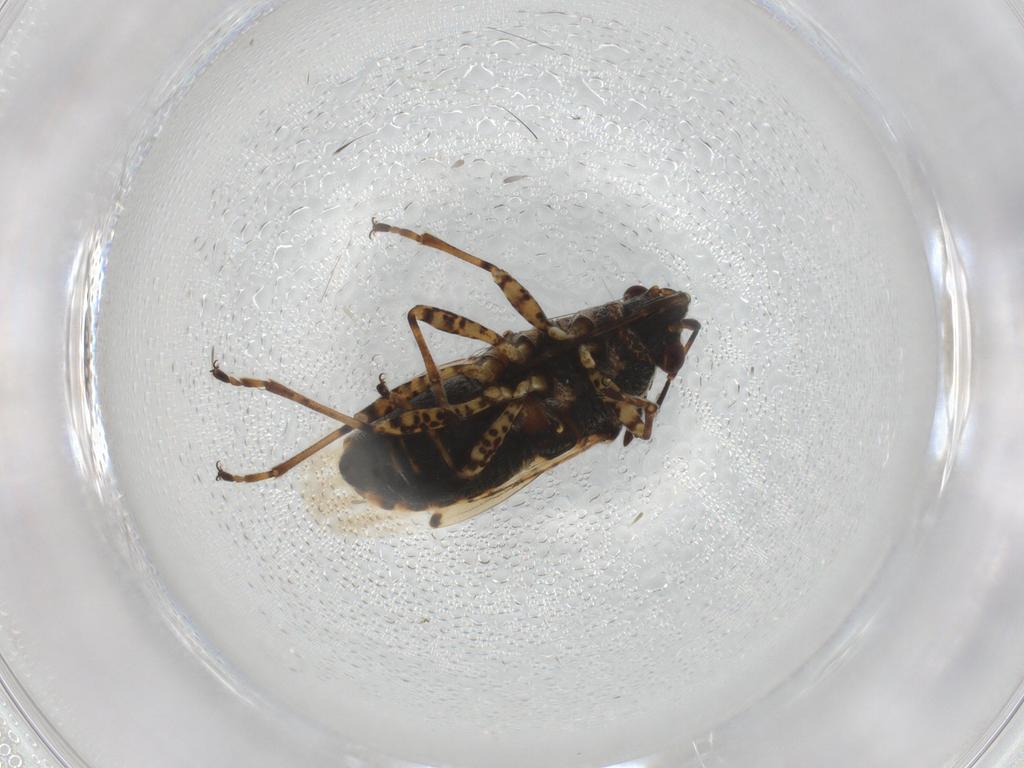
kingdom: Animalia
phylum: Arthropoda
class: Insecta
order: Hemiptera
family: Lygaeidae
